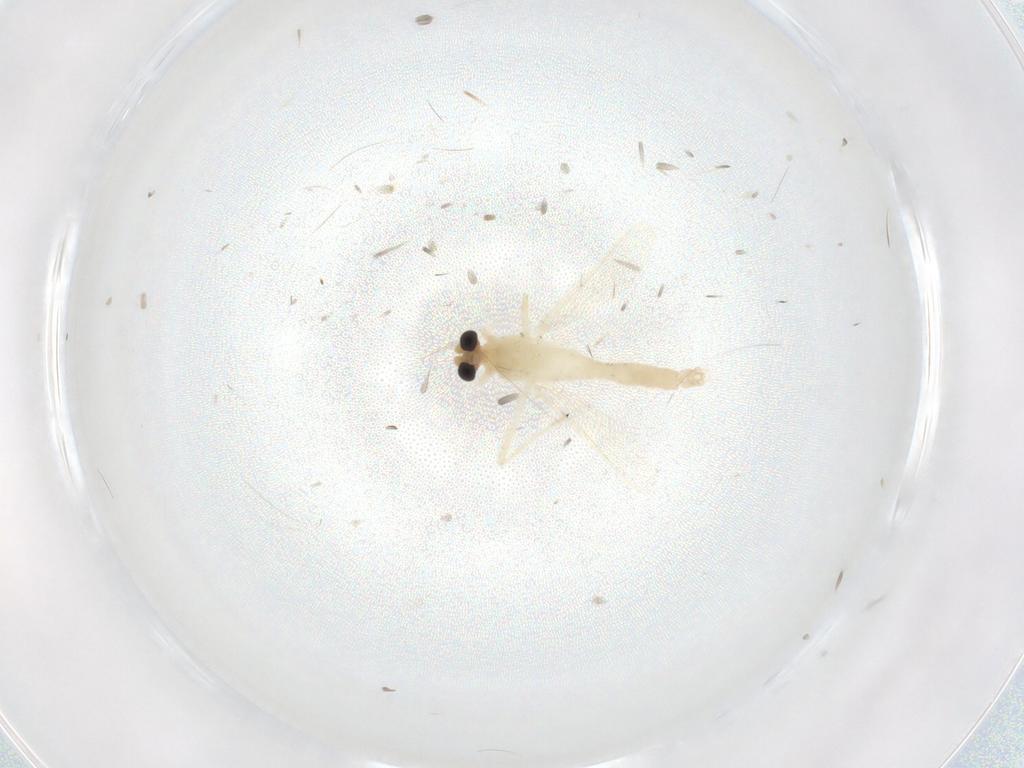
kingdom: Animalia
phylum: Arthropoda
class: Insecta
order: Diptera
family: Chironomidae
